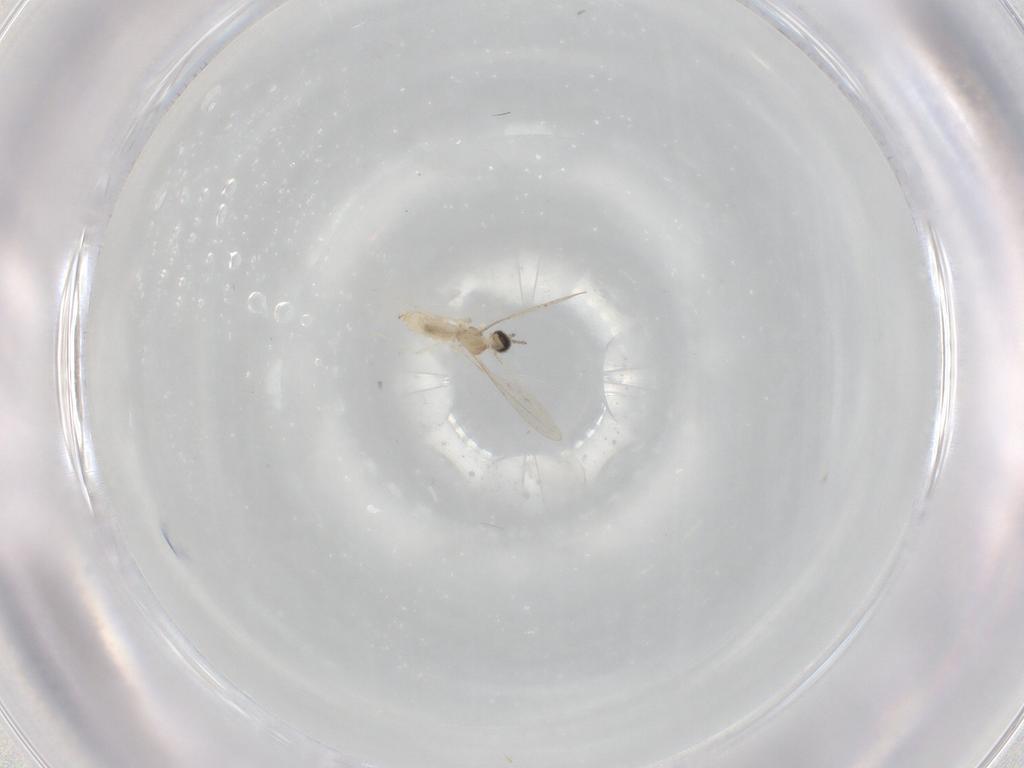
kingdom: Animalia
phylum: Arthropoda
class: Insecta
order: Diptera
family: Cecidomyiidae
